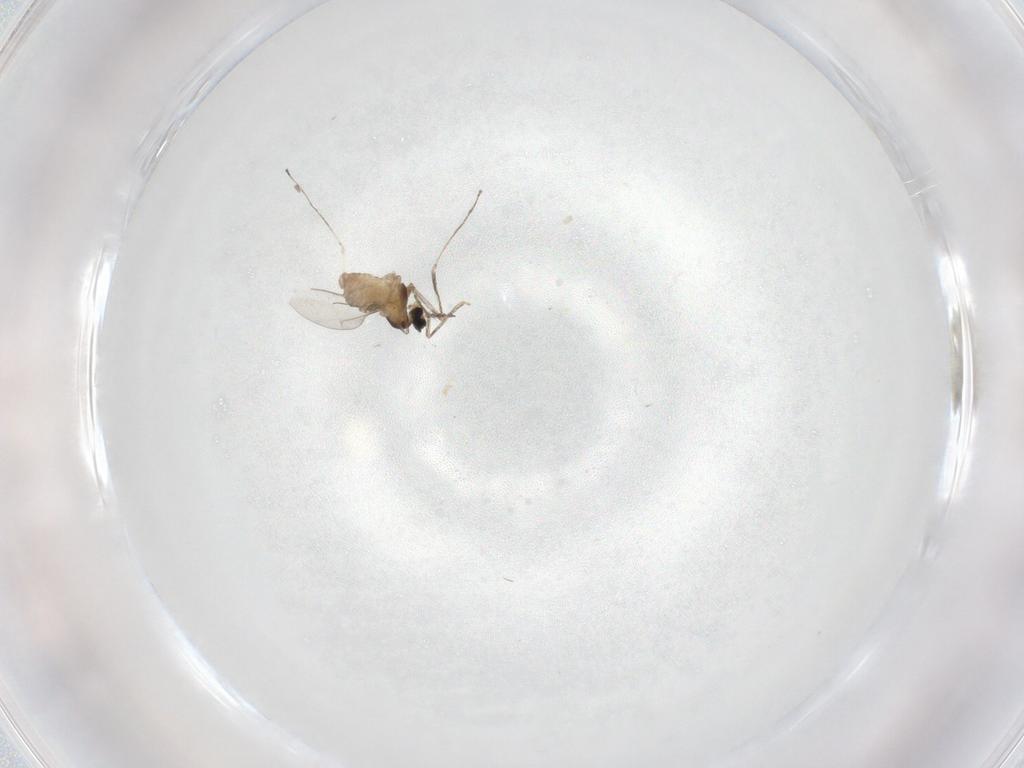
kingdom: Animalia
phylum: Arthropoda
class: Insecta
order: Diptera
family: Cecidomyiidae
